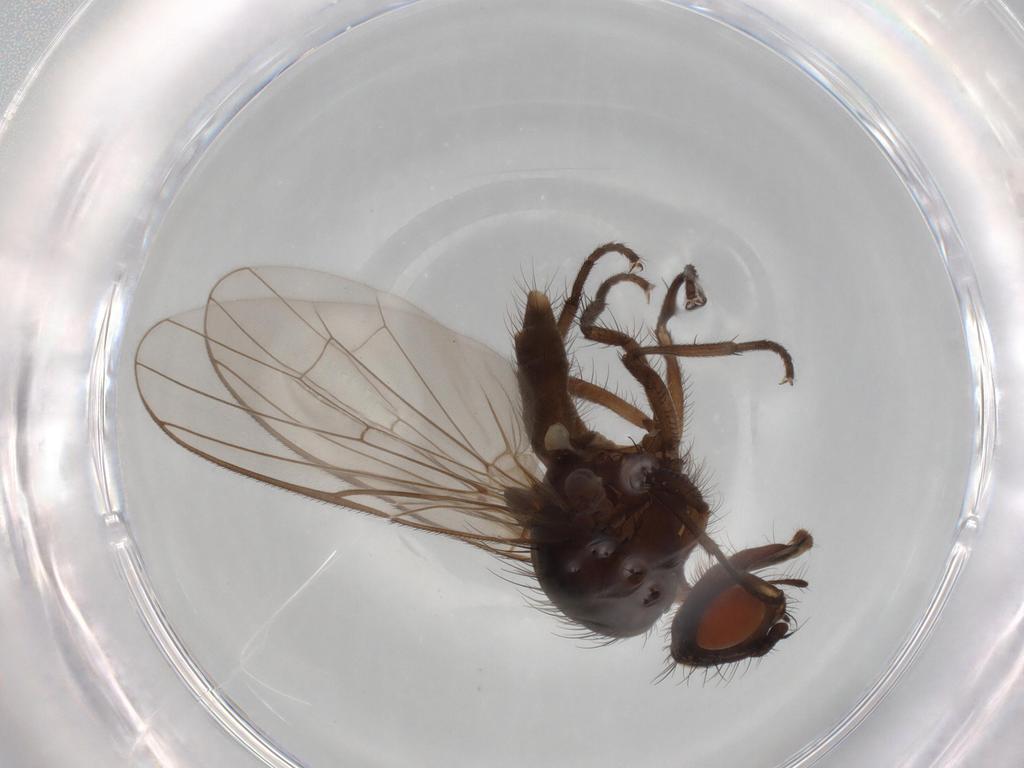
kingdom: Animalia
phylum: Arthropoda
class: Insecta
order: Diptera
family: Anthomyiidae
